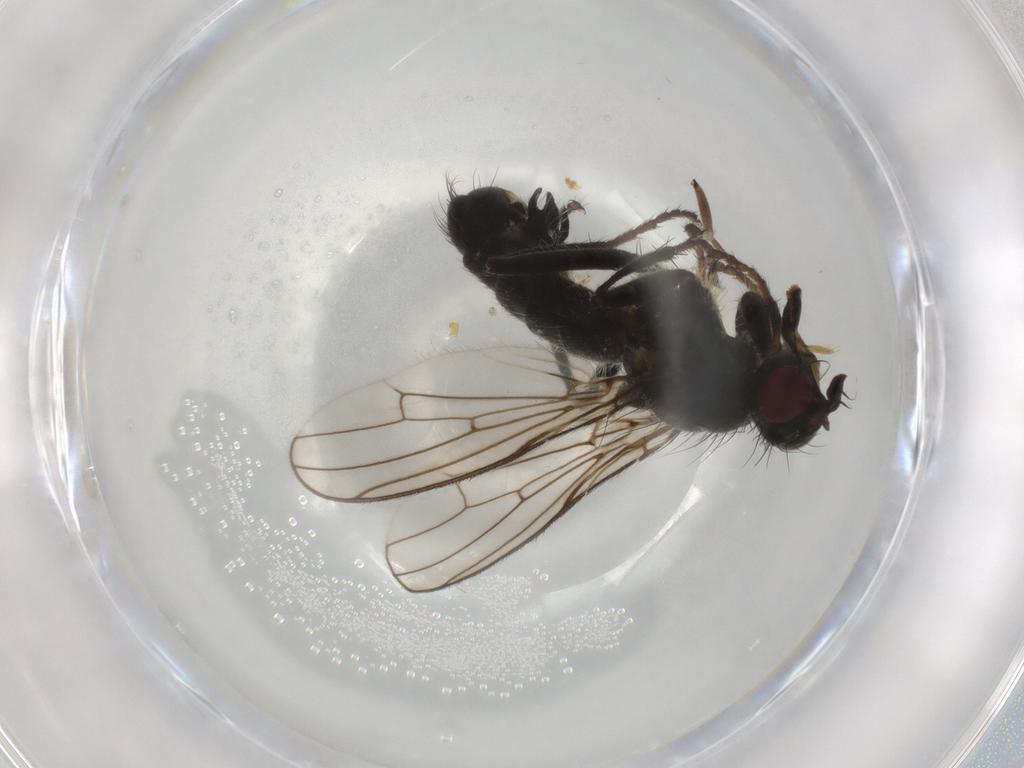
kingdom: Animalia
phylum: Arthropoda
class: Insecta
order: Diptera
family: Scathophagidae
